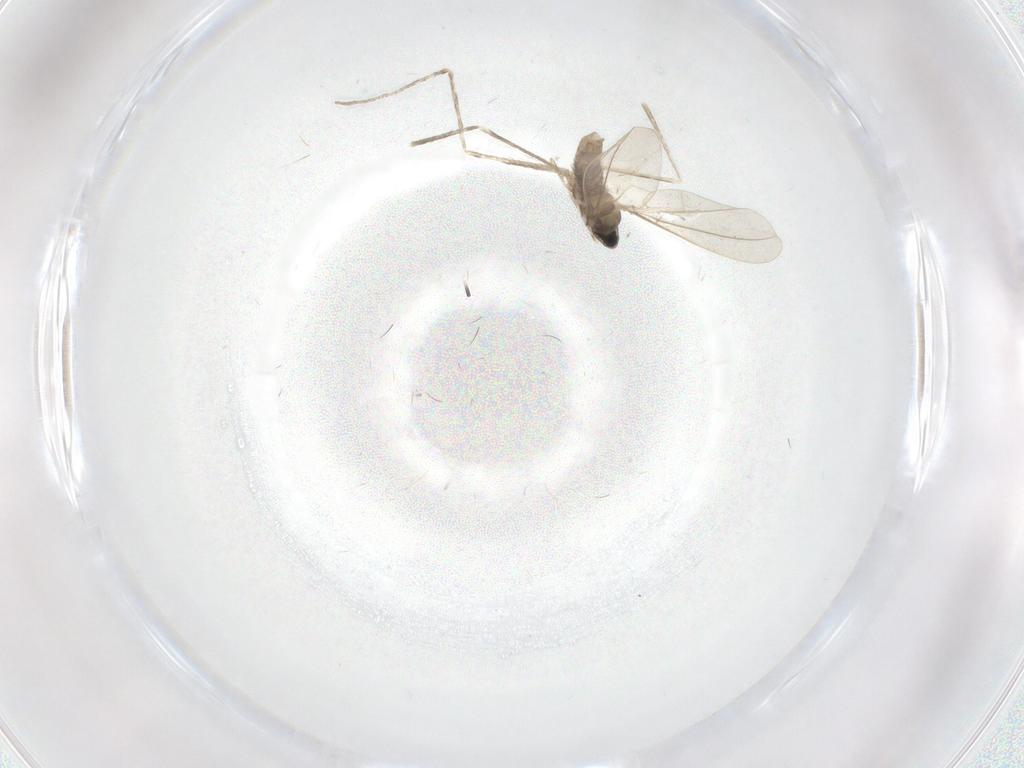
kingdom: Animalia
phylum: Arthropoda
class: Insecta
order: Diptera
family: Cecidomyiidae
